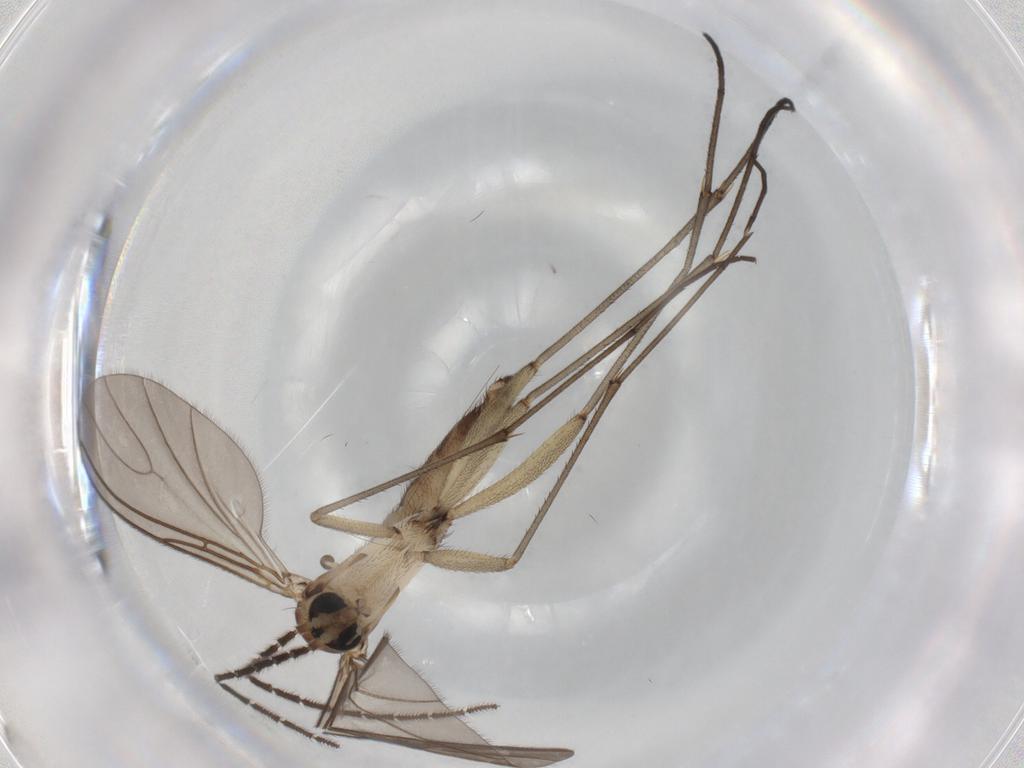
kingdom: Animalia
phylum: Arthropoda
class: Insecta
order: Diptera
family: Sciaridae
